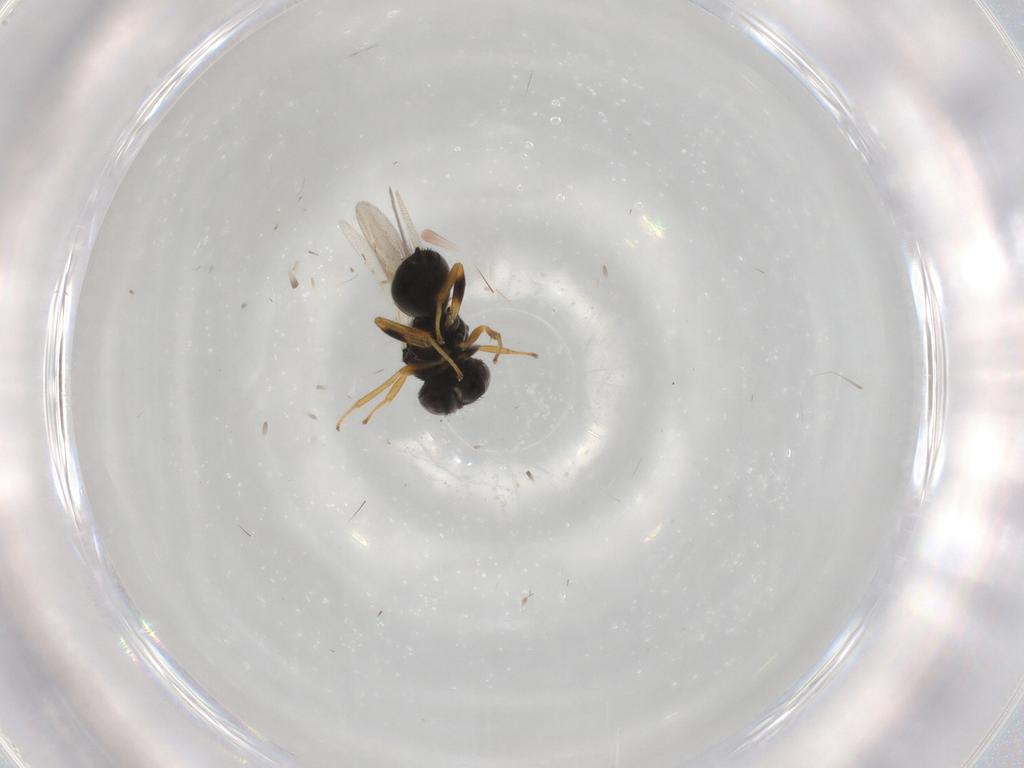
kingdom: Animalia
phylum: Arthropoda
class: Insecta
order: Hymenoptera
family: Pteromalidae
